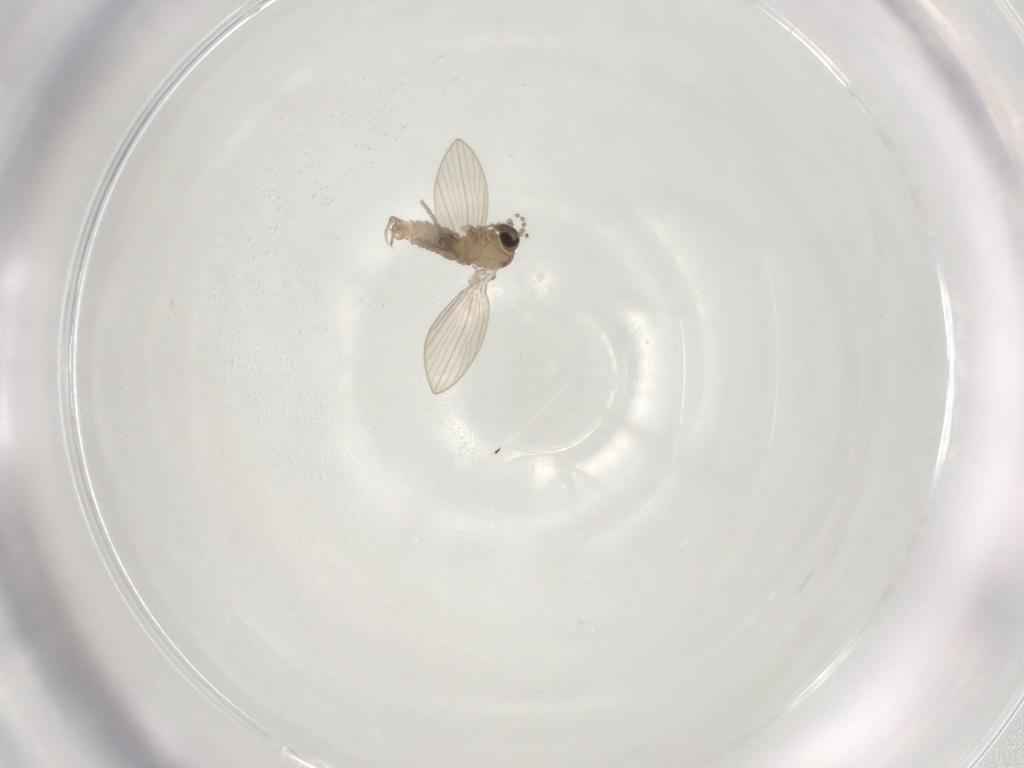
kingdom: Animalia
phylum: Arthropoda
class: Insecta
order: Diptera
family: Psychodidae
